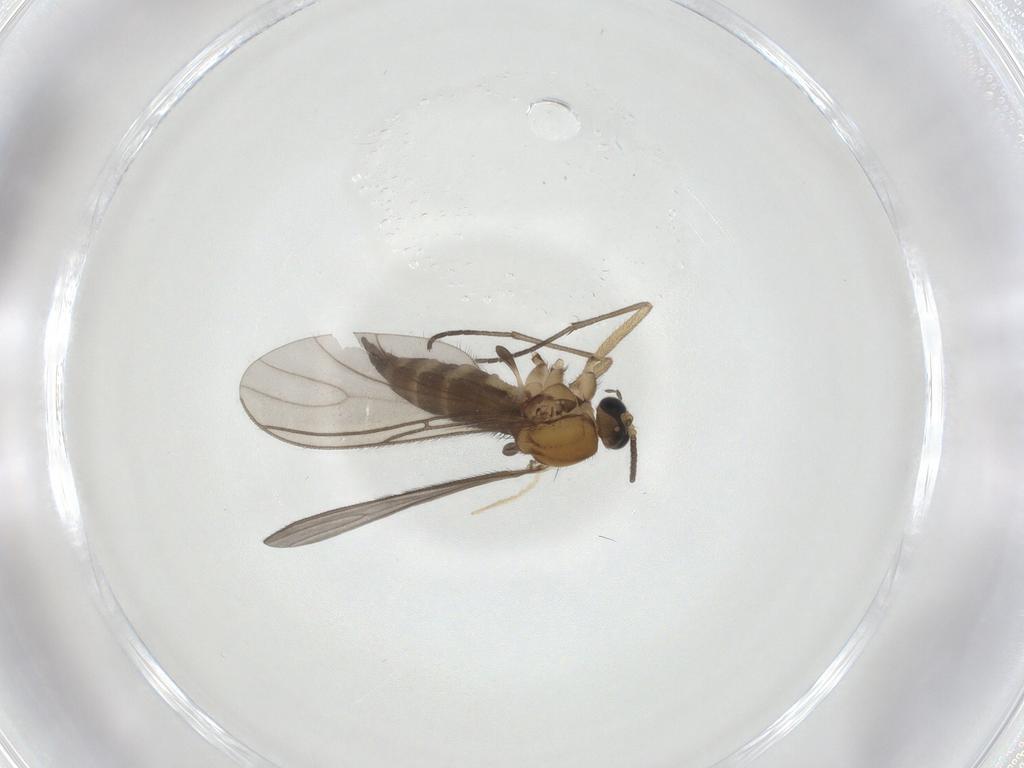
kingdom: Animalia
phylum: Arthropoda
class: Insecta
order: Diptera
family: Sciaridae
